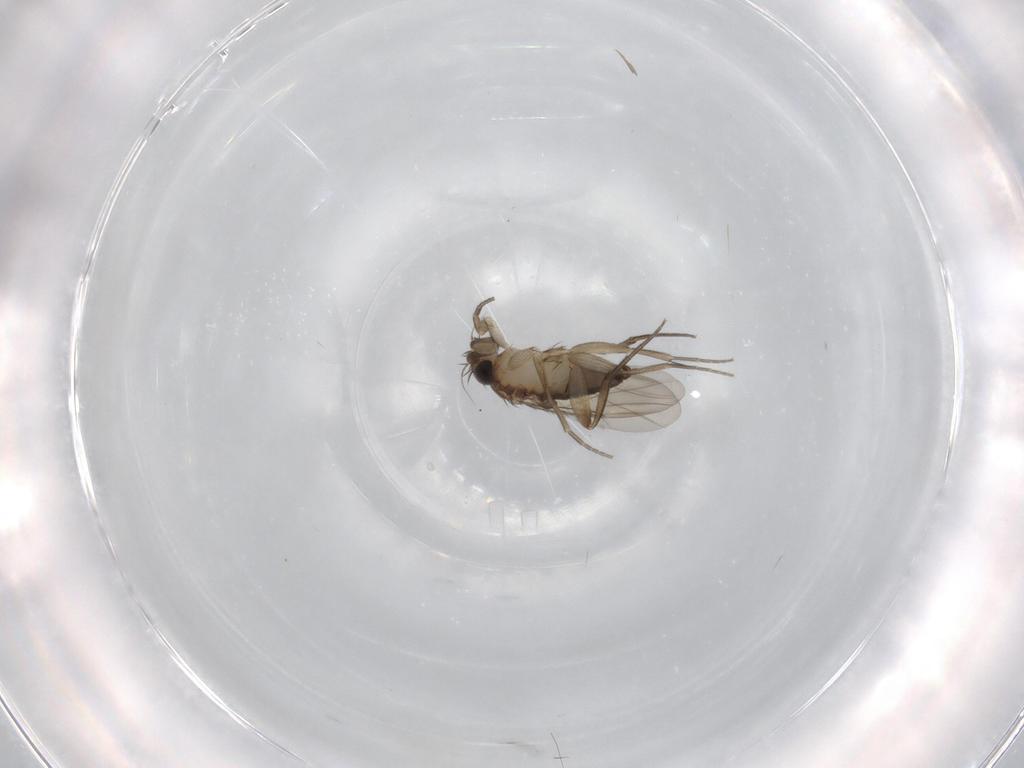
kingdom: Animalia
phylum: Arthropoda
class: Insecta
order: Diptera
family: Phoridae
